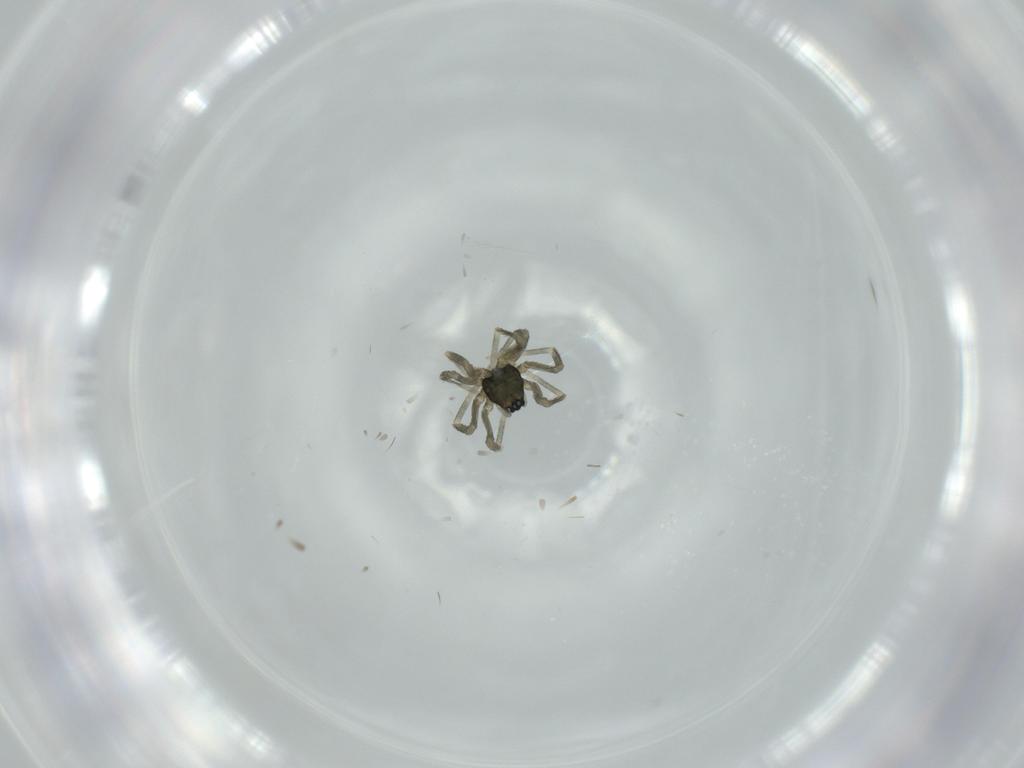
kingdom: Animalia
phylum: Arthropoda
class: Arachnida
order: Araneae
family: Linyphiidae
